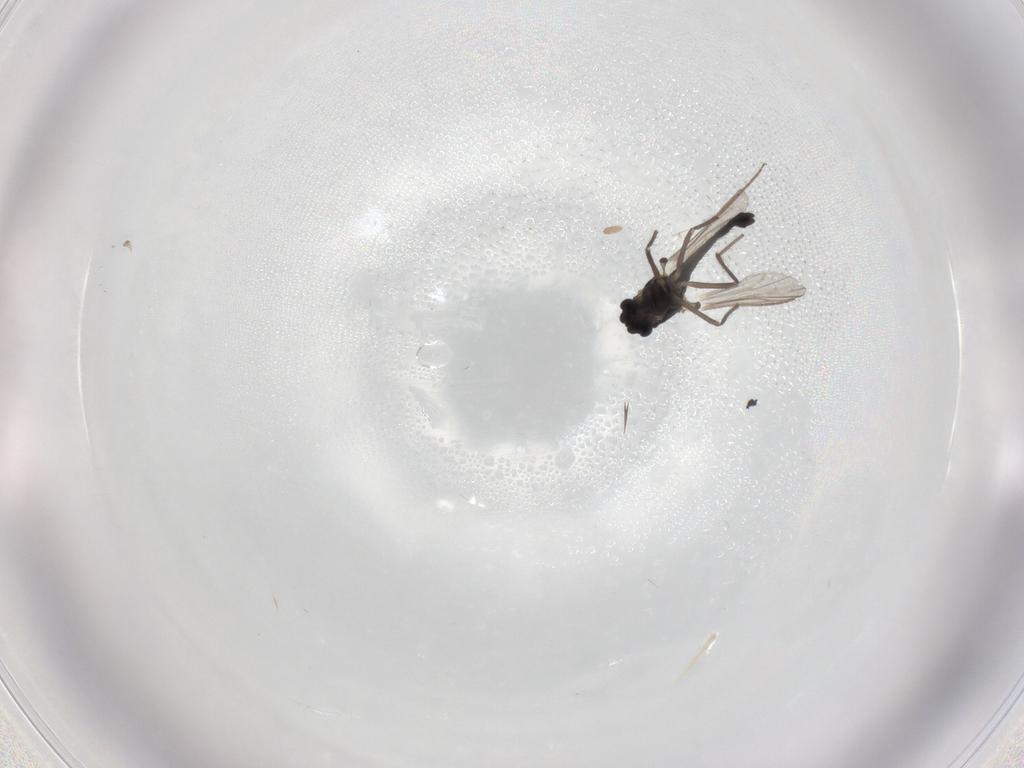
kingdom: Animalia
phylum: Arthropoda
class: Insecta
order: Diptera
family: Chironomidae
